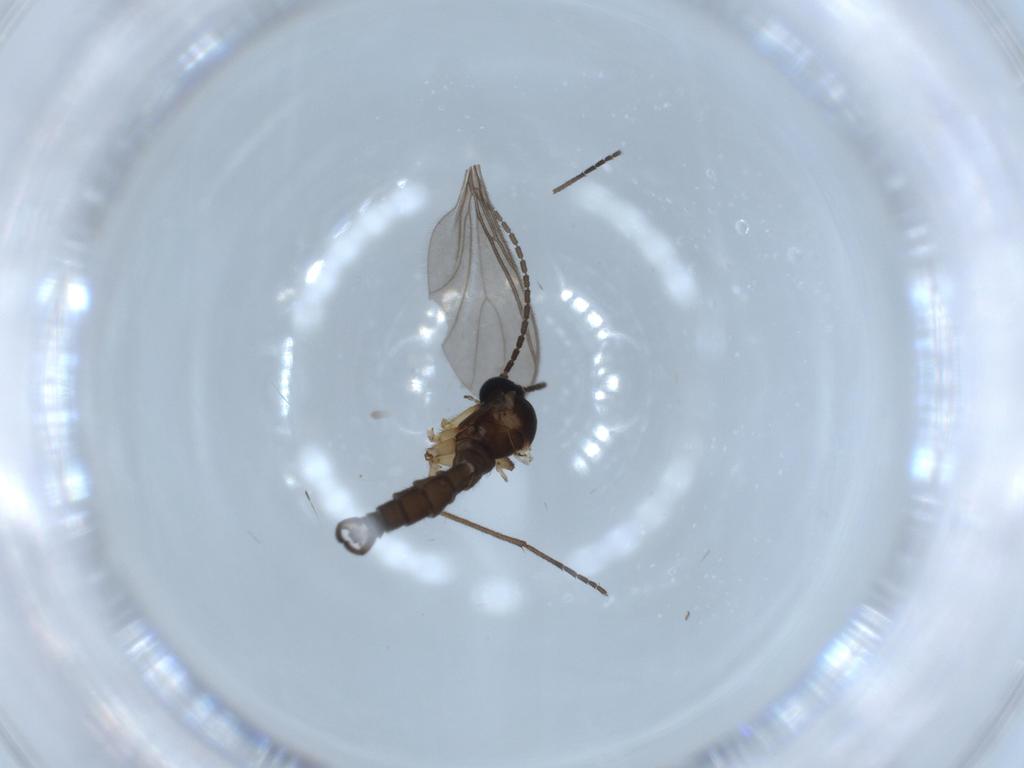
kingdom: Animalia
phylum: Arthropoda
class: Insecta
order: Diptera
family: Sciaridae
